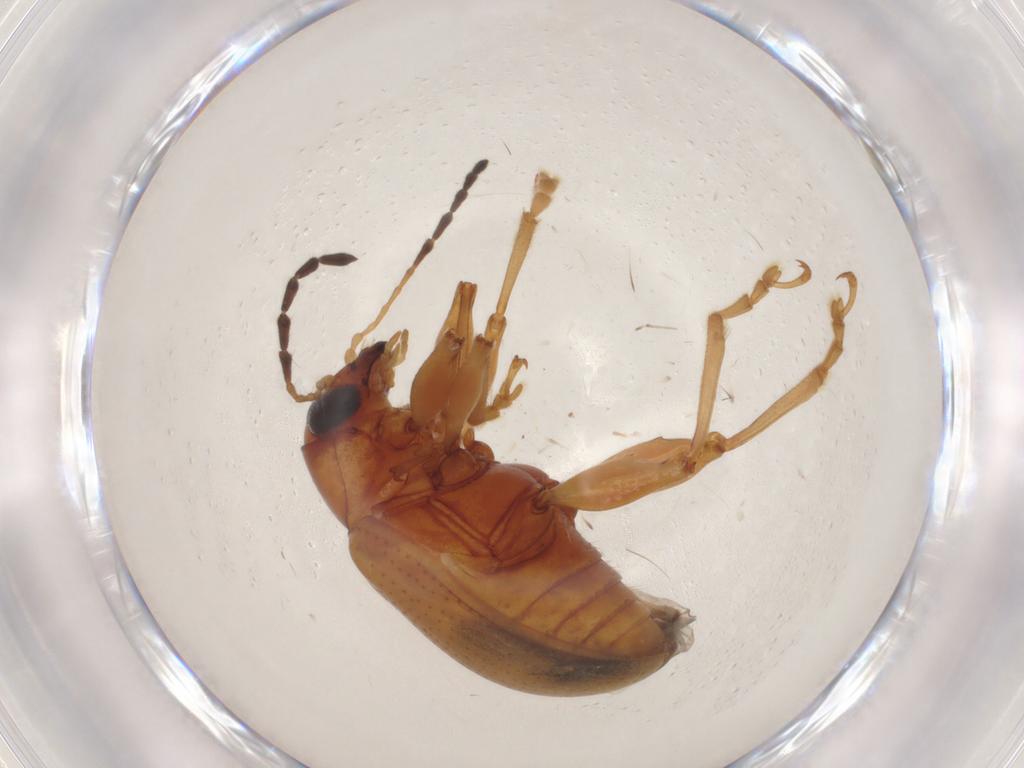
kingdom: Animalia
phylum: Arthropoda
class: Insecta
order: Coleoptera
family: Chrysomelidae
